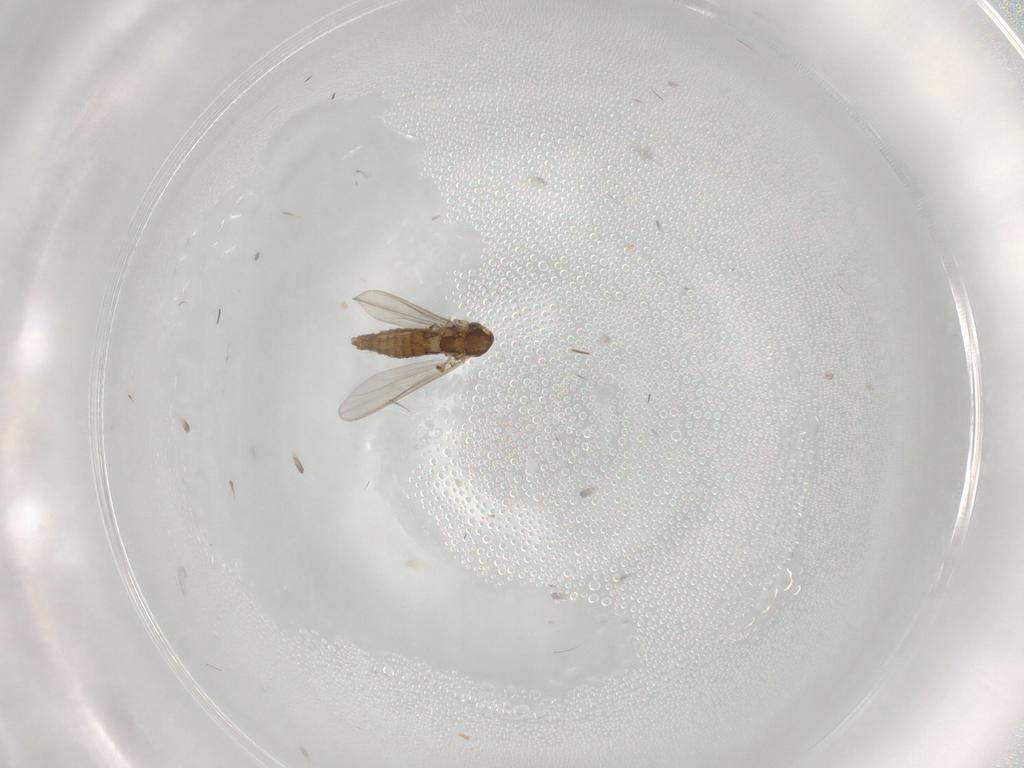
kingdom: Animalia
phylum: Arthropoda
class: Insecta
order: Diptera
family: Chironomidae
